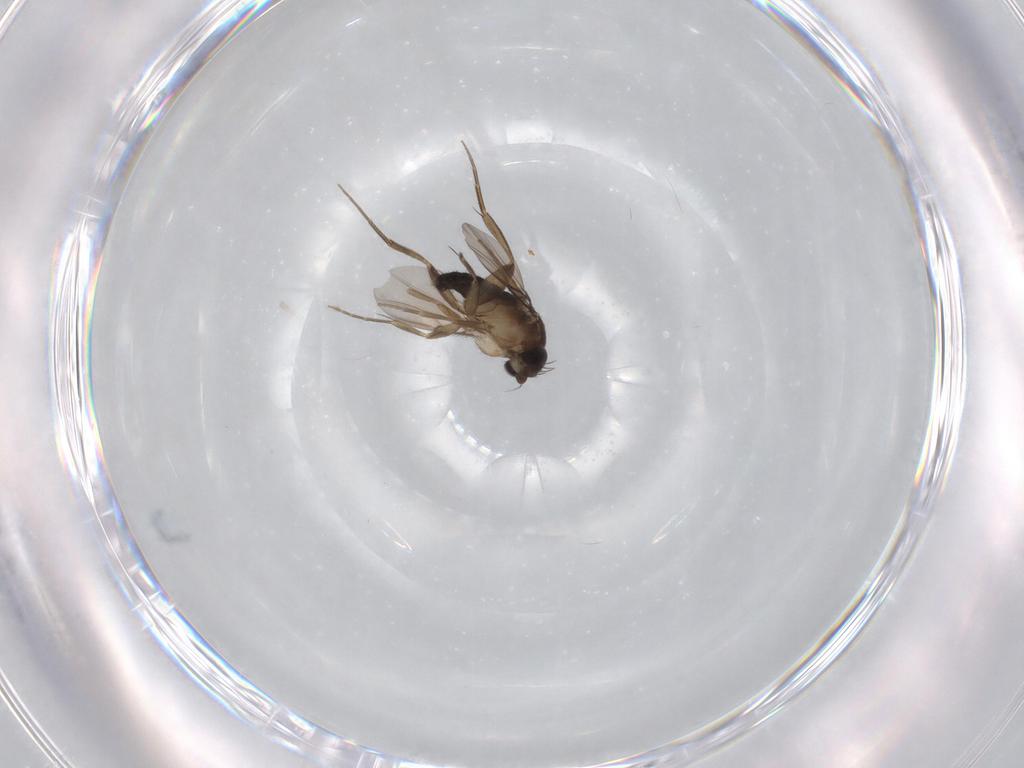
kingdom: Animalia
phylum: Arthropoda
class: Insecta
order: Diptera
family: Phoridae
